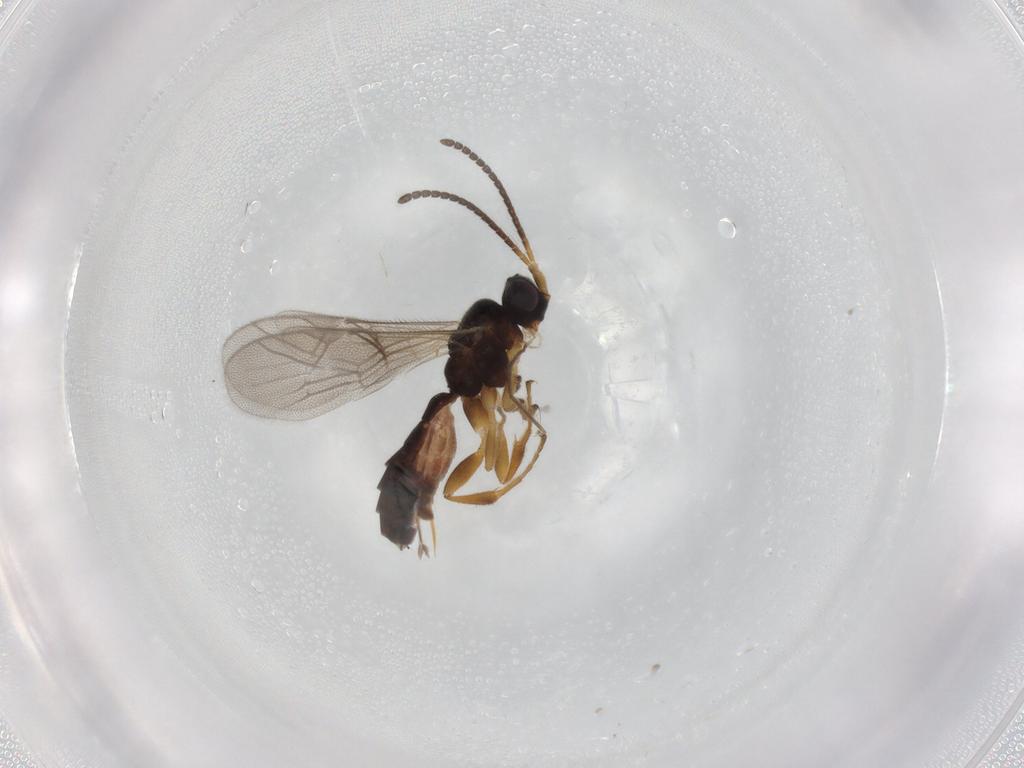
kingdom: Animalia
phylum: Arthropoda
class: Insecta
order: Hymenoptera
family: Ichneumonidae
